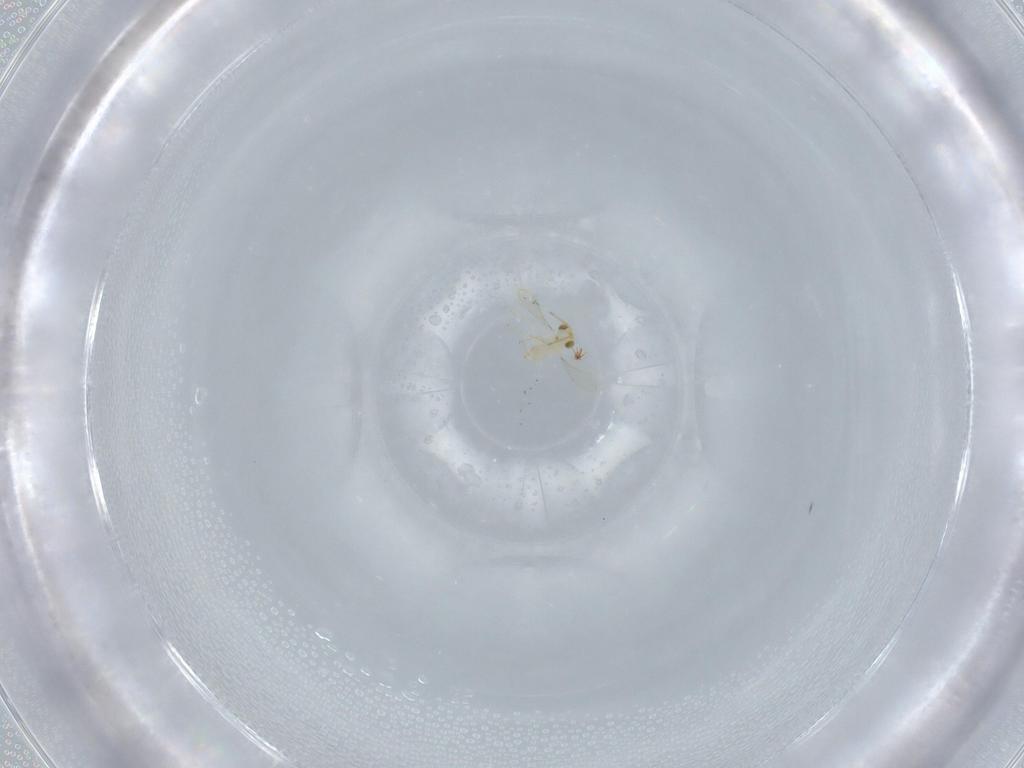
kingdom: Animalia
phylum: Arthropoda
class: Insecta
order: Hymenoptera
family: Aphelinidae
